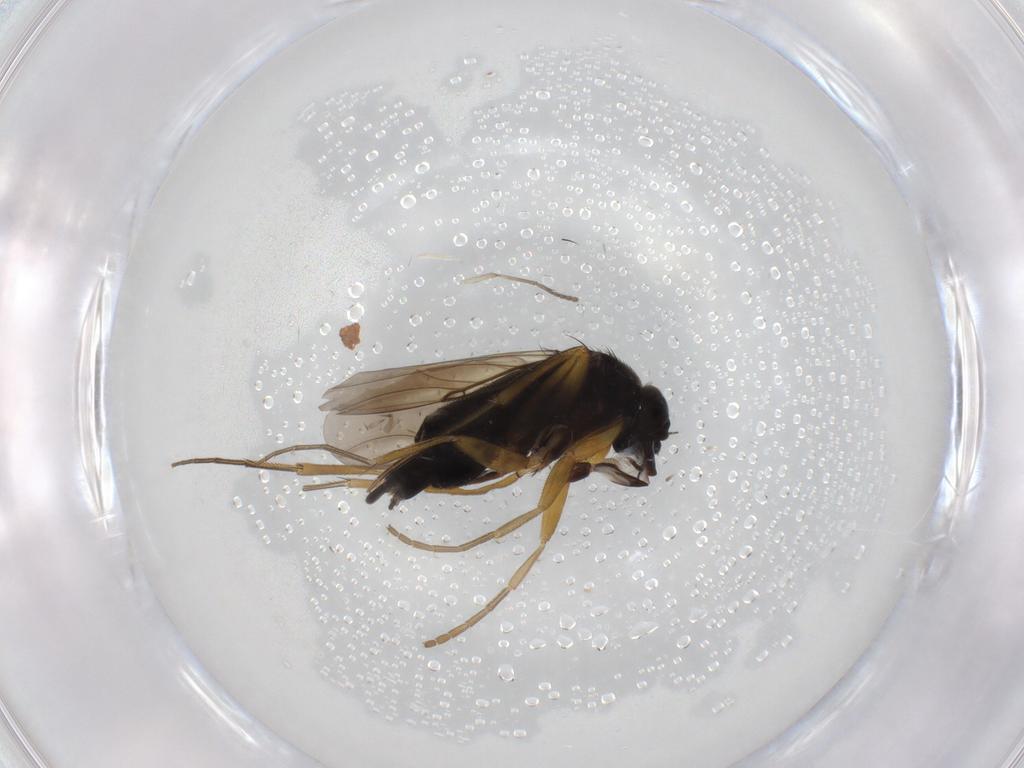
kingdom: Animalia
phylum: Arthropoda
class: Insecta
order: Diptera
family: Psychodidae
